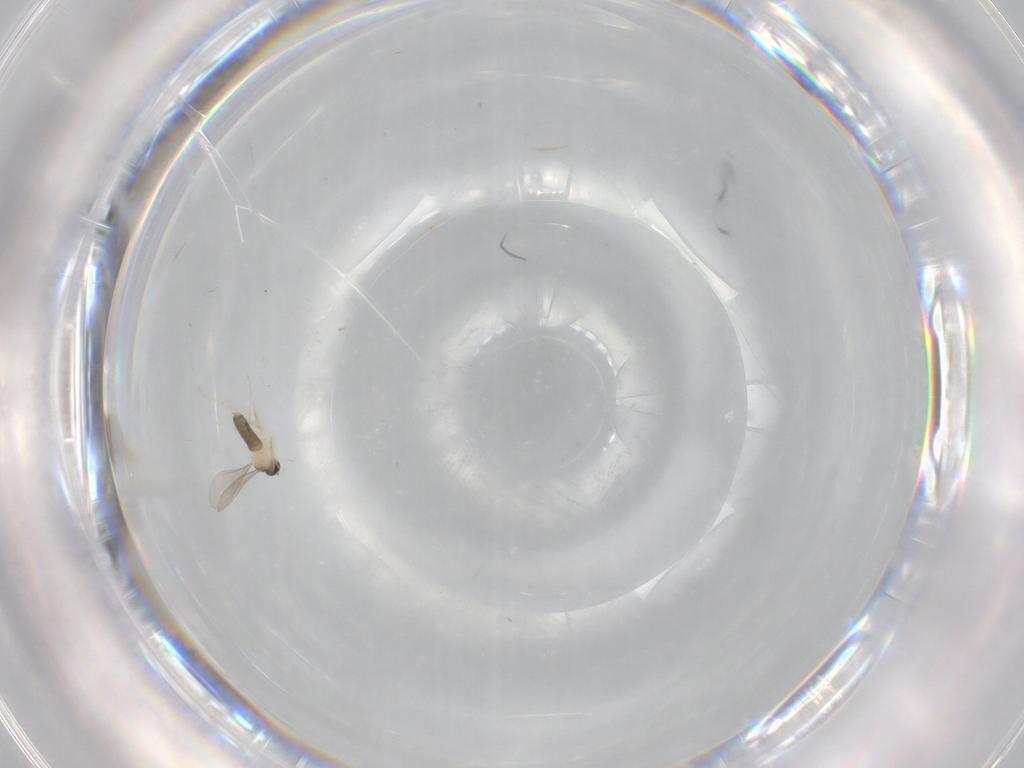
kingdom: Animalia
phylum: Arthropoda
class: Insecta
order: Diptera
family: Cecidomyiidae
